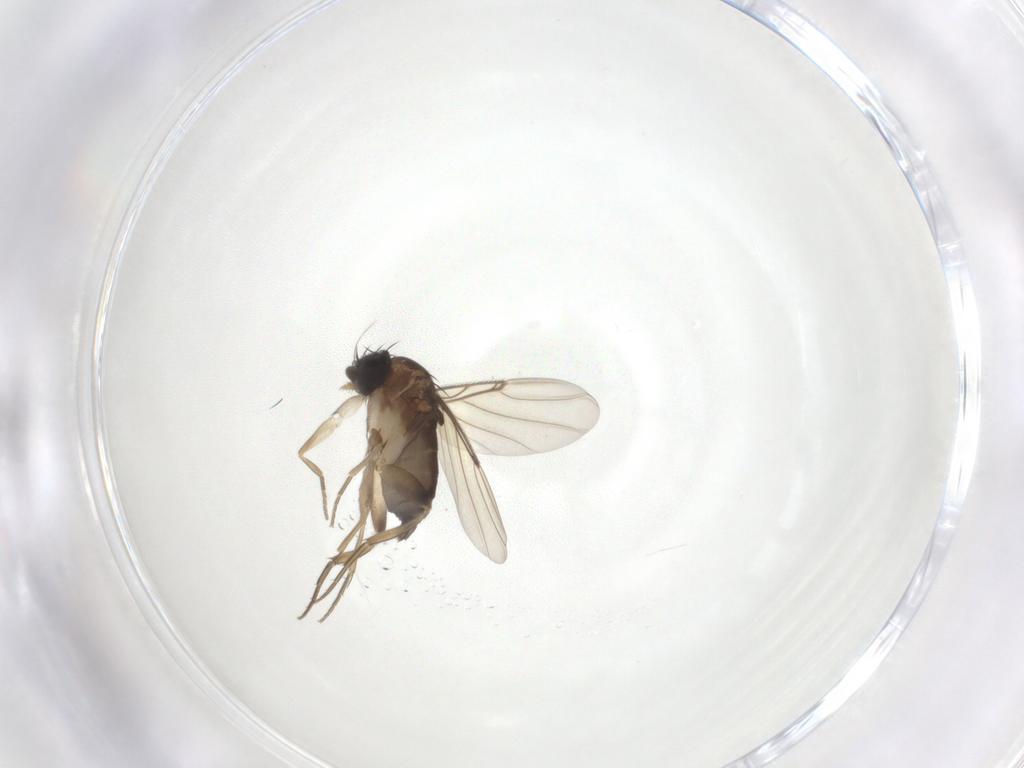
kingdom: Animalia
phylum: Arthropoda
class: Insecta
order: Diptera
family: Phoridae
